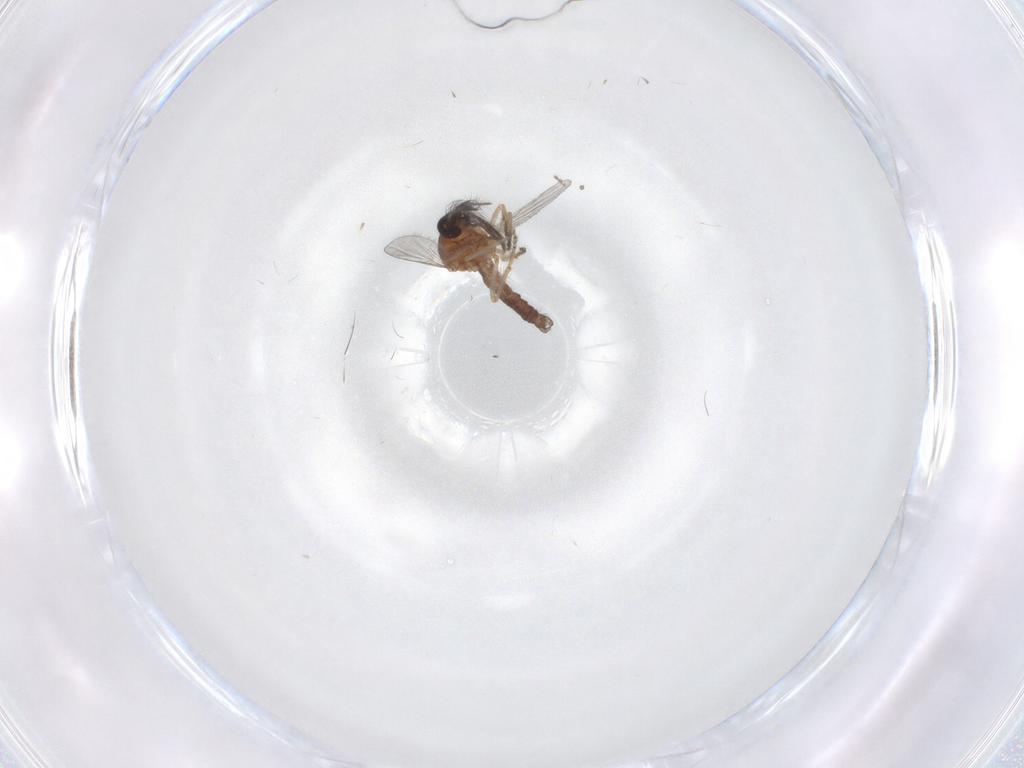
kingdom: Animalia
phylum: Arthropoda
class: Insecta
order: Diptera
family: Ceratopogonidae
